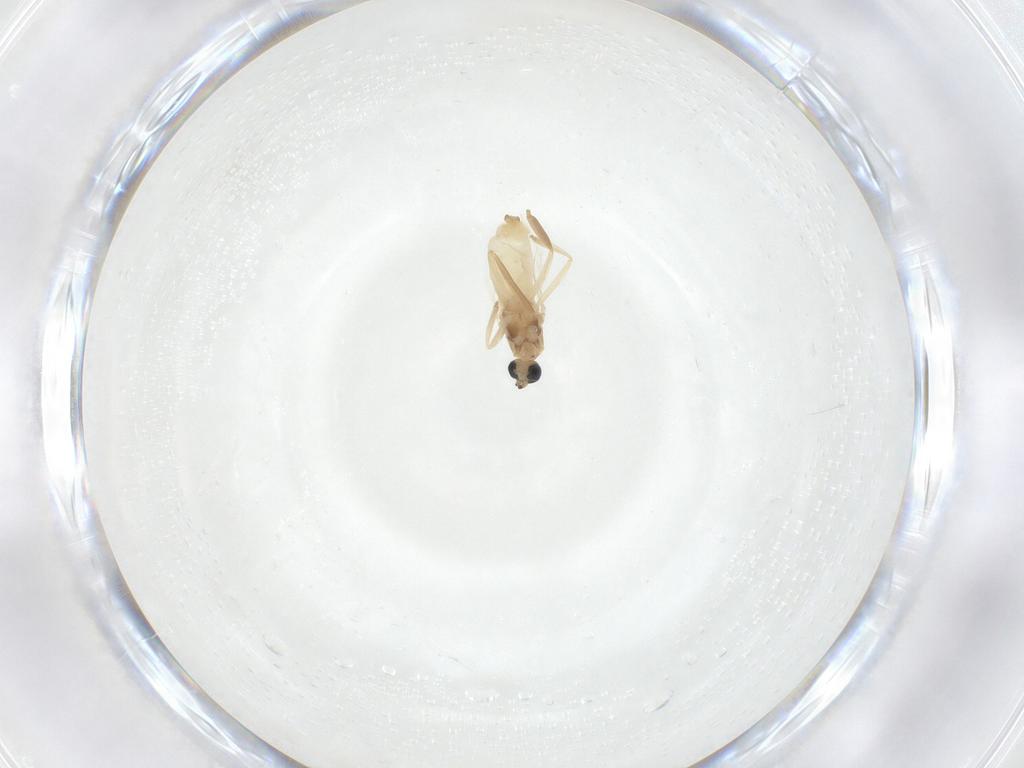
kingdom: Animalia
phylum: Arthropoda
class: Insecta
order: Diptera
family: Cecidomyiidae
